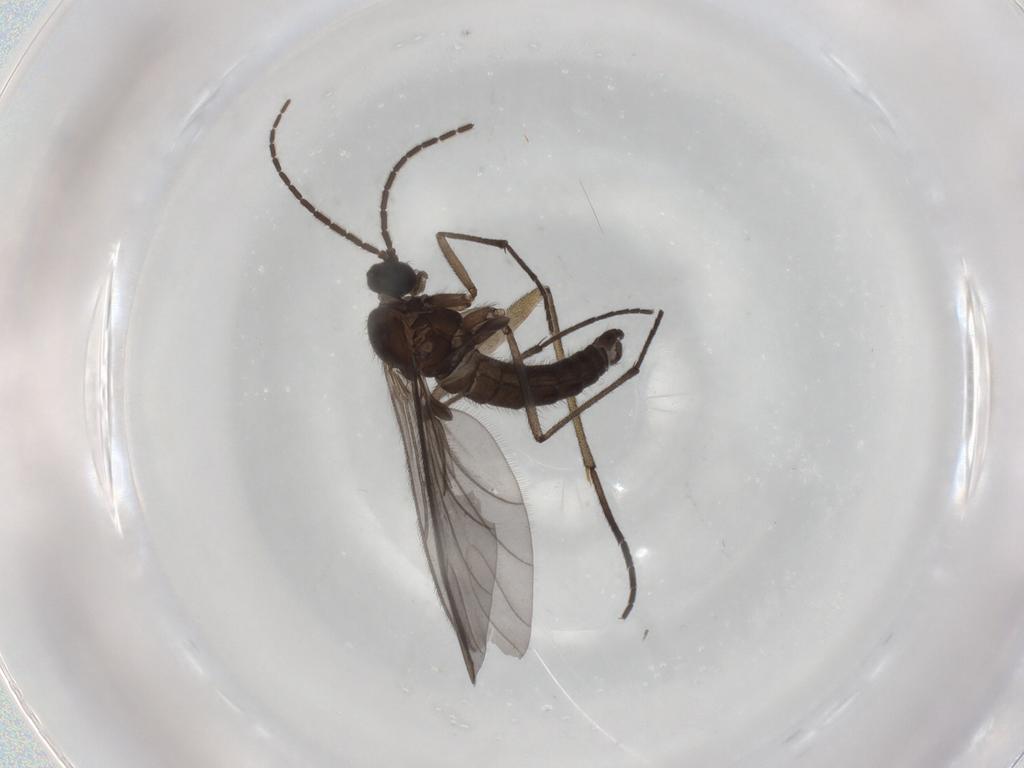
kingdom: Animalia
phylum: Arthropoda
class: Insecta
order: Diptera
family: Sciaridae
